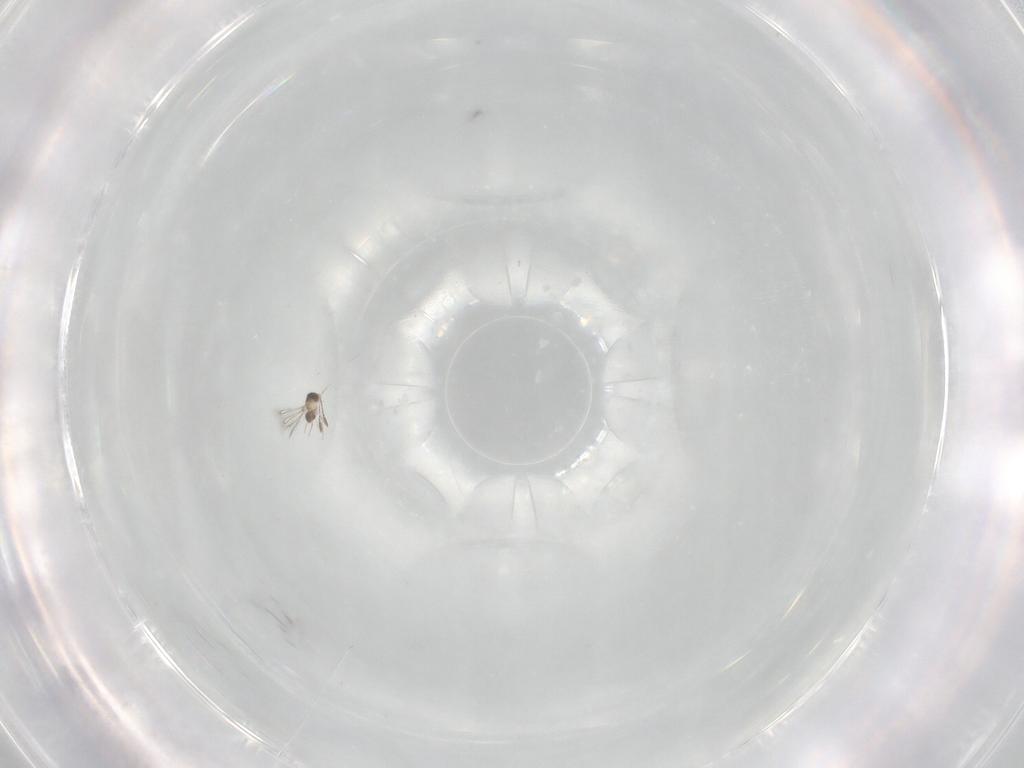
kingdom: Animalia
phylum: Arthropoda
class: Insecta
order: Hymenoptera
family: Mymaridae
